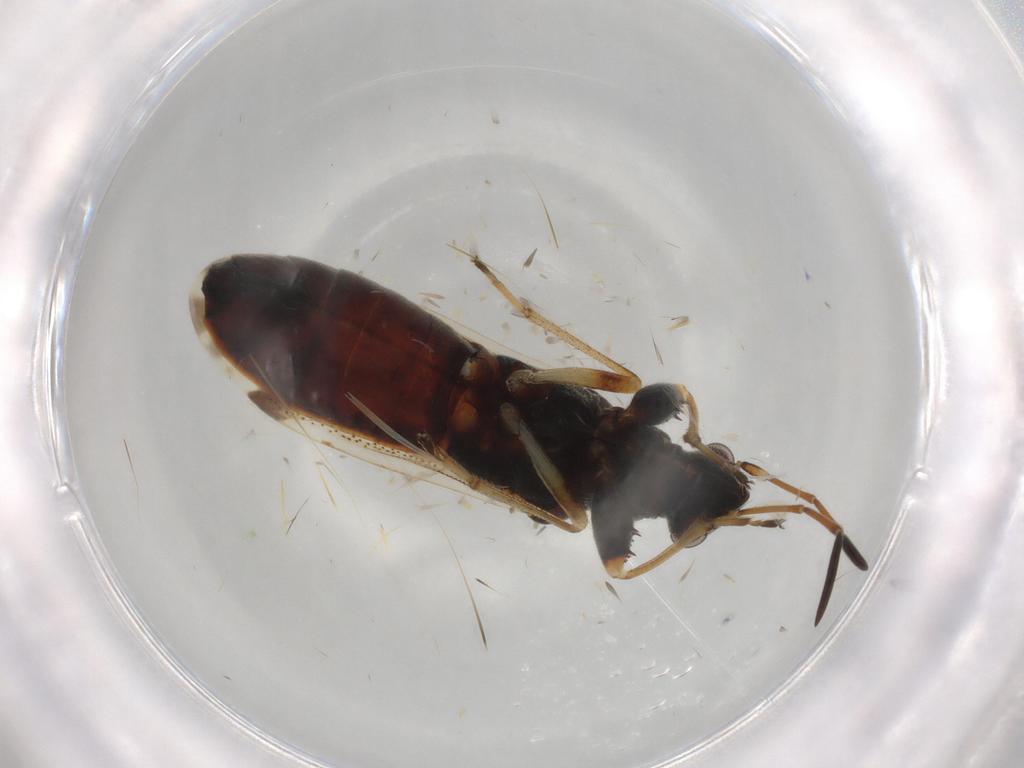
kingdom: Animalia
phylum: Arthropoda
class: Insecta
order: Hemiptera
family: Rhyparochromidae
